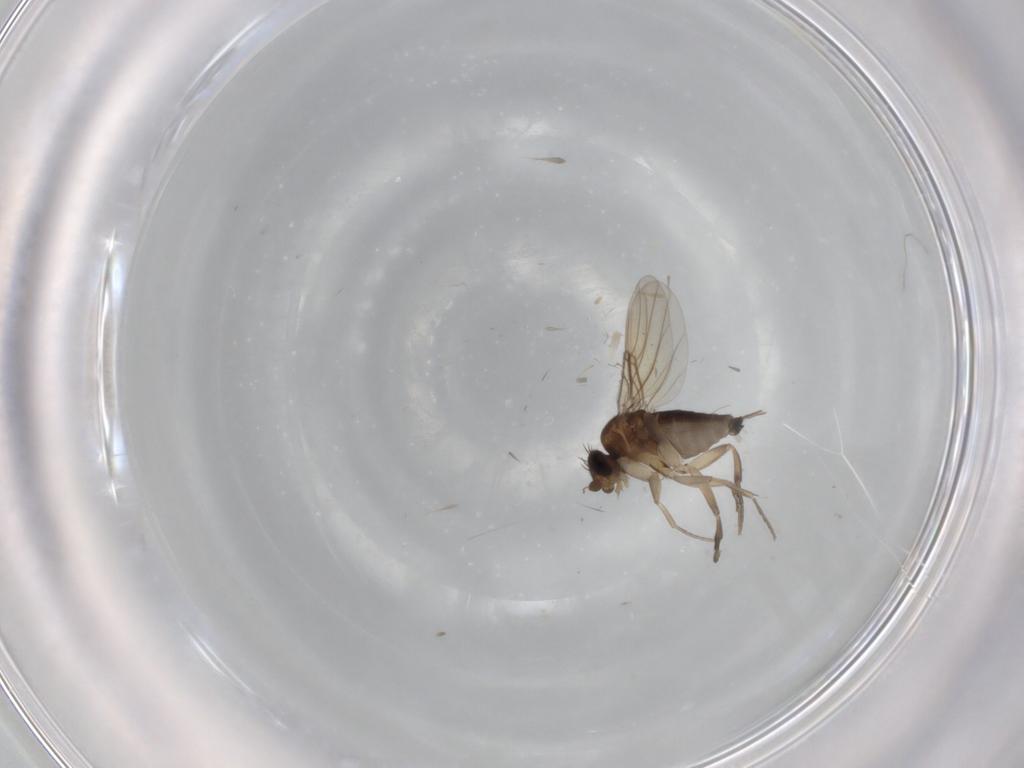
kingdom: Animalia
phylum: Arthropoda
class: Insecta
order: Diptera
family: Phoridae
